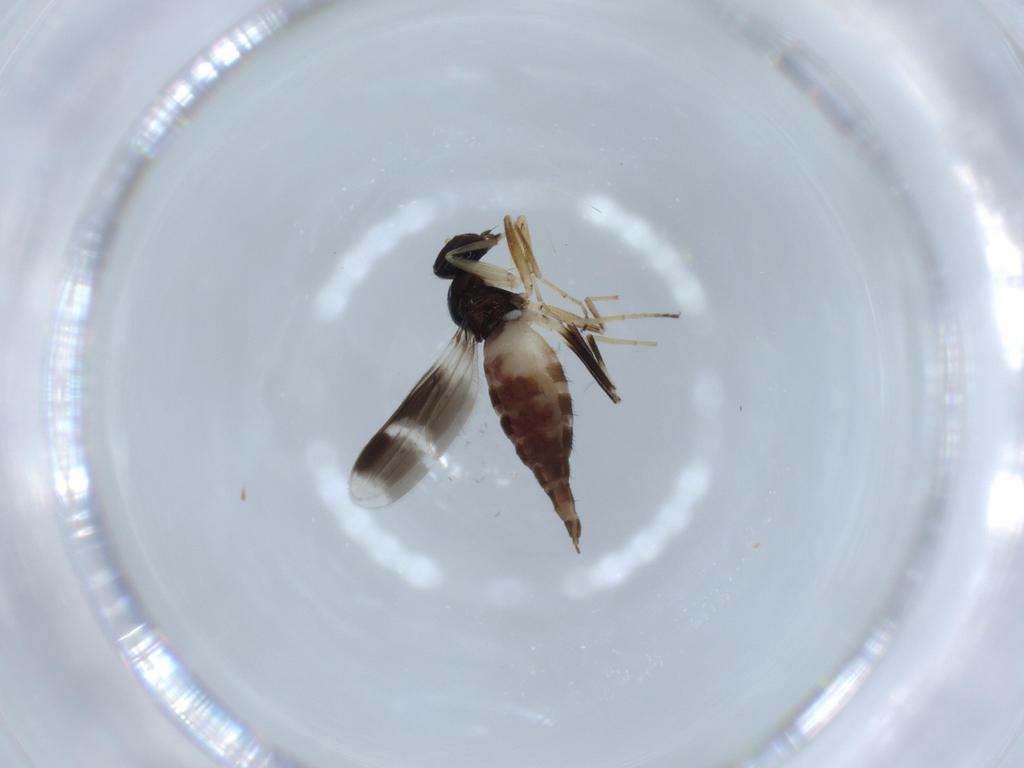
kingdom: Animalia
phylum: Arthropoda
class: Insecta
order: Diptera
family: Hybotidae
